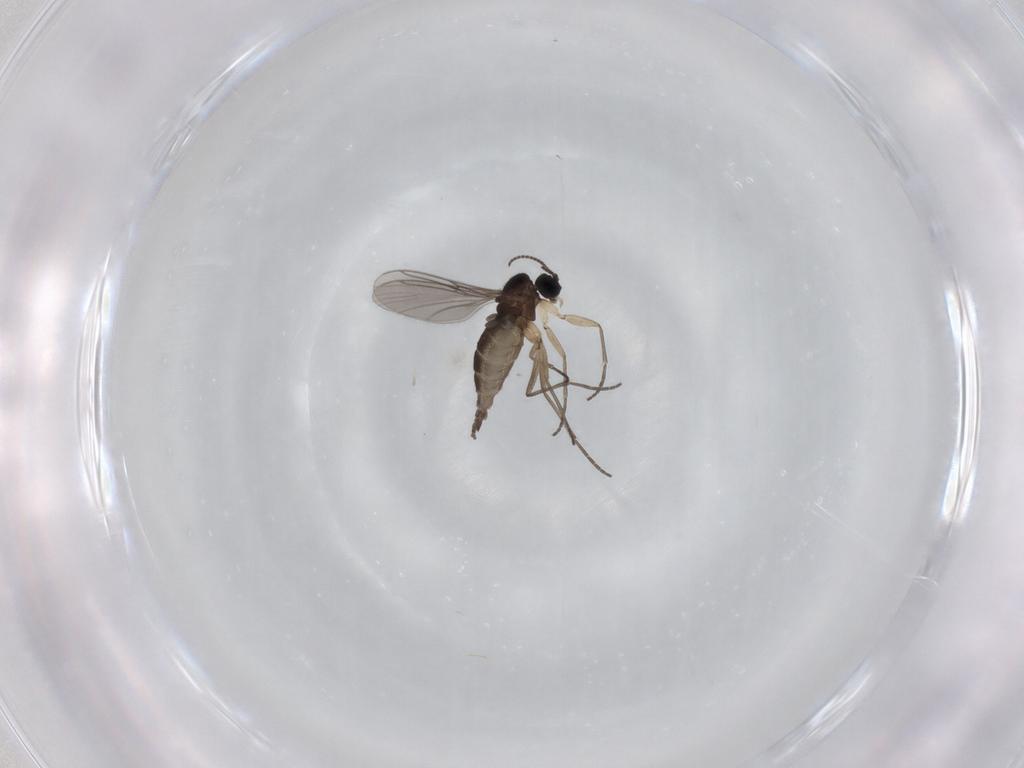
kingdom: Animalia
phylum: Arthropoda
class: Insecta
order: Diptera
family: Sciaridae
